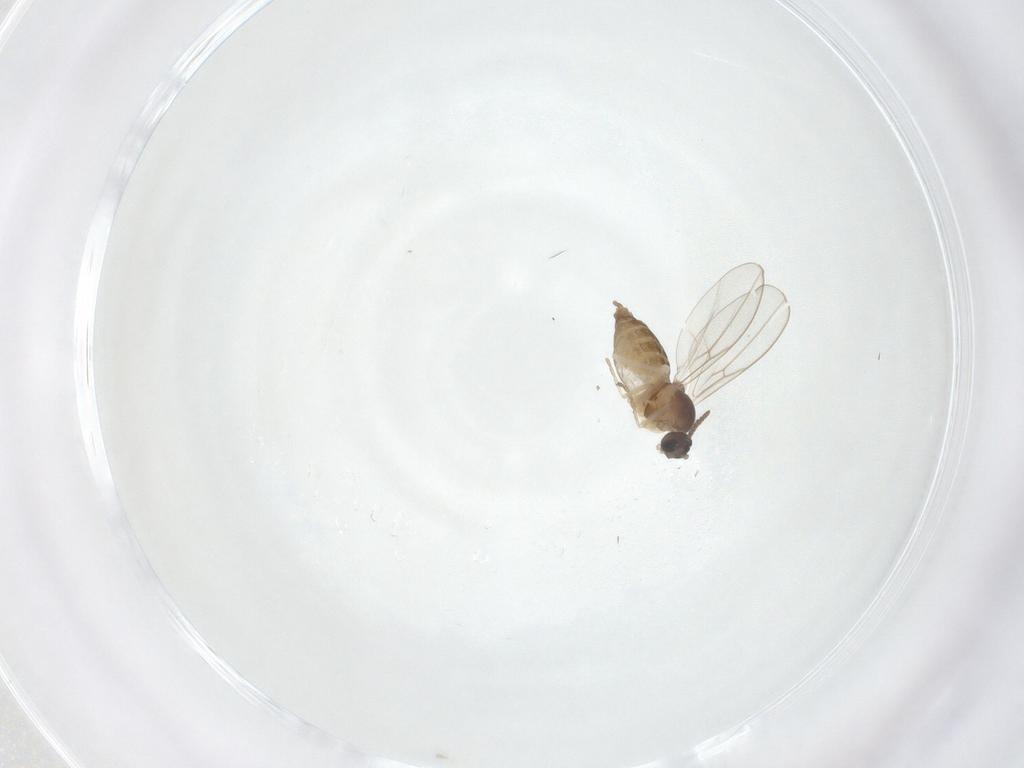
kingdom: Animalia
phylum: Arthropoda
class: Insecta
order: Diptera
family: Cecidomyiidae
